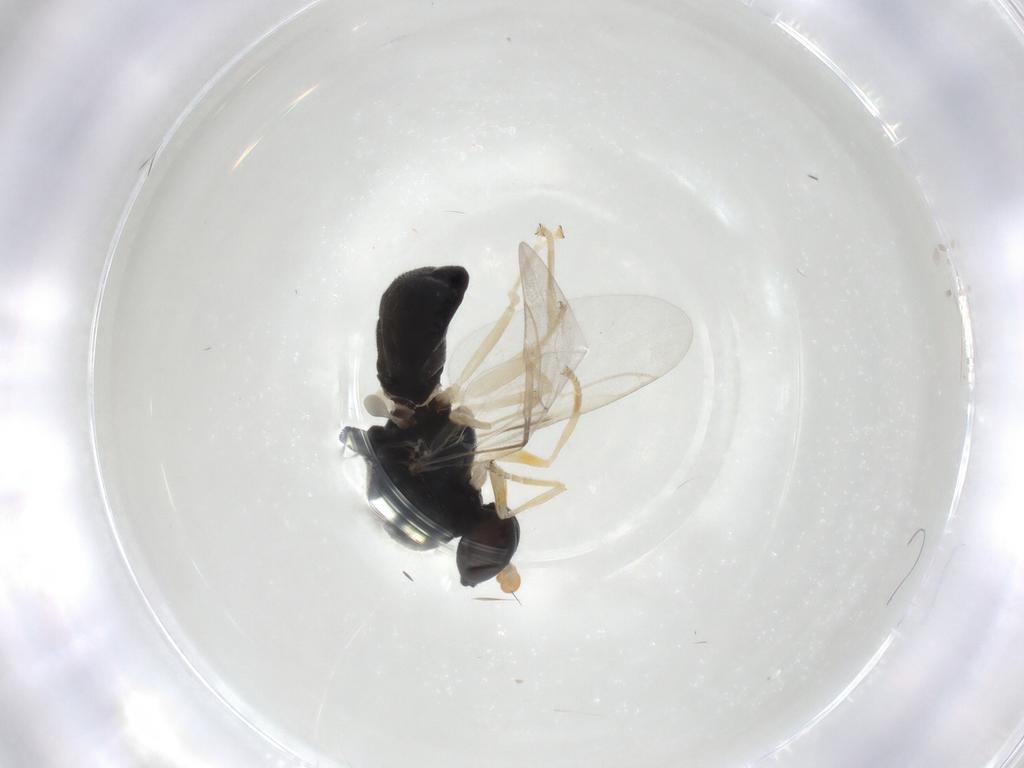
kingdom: Animalia
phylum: Arthropoda
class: Insecta
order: Diptera
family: Stratiomyidae
